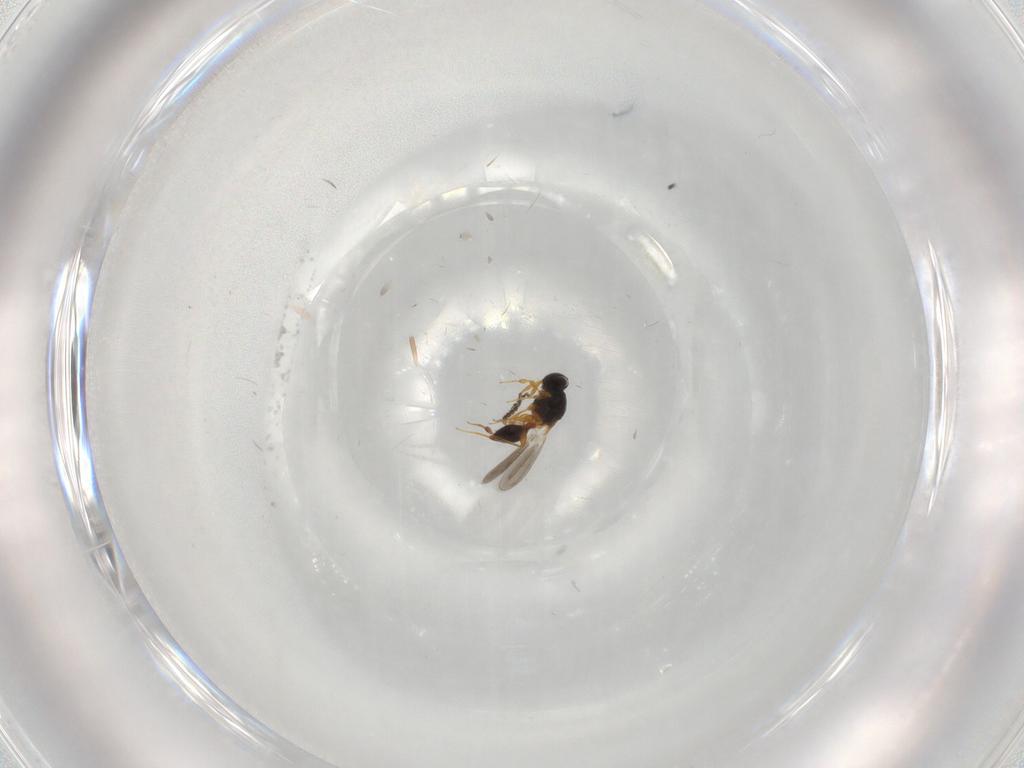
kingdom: Animalia
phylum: Arthropoda
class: Insecta
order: Hymenoptera
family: Platygastridae
